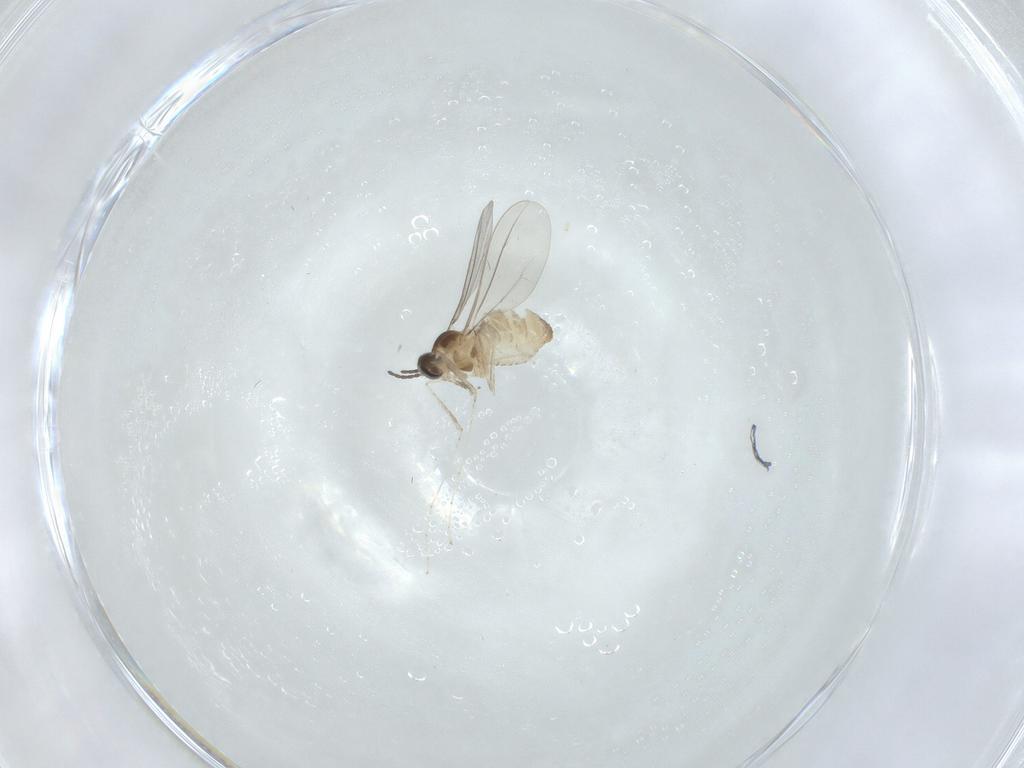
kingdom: Animalia
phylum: Arthropoda
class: Insecta
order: Diptera
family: Cecidomyiidae
